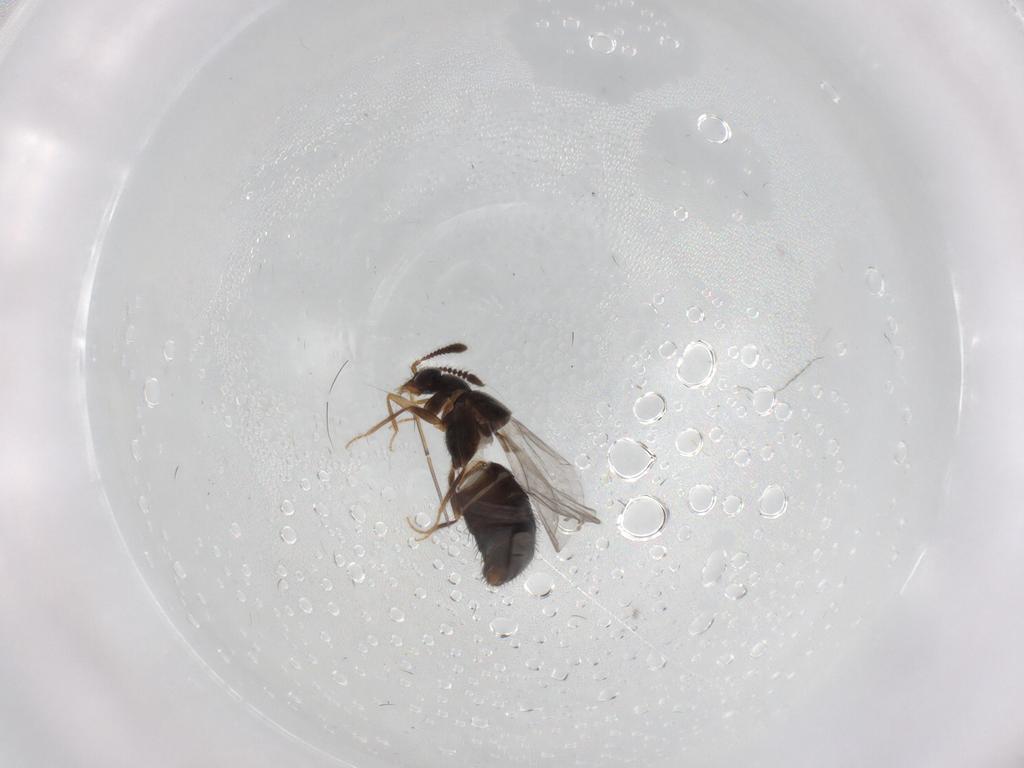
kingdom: Animalia
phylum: Arthropoda
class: Insecta
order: Coleoptera
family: Staphylinidae
